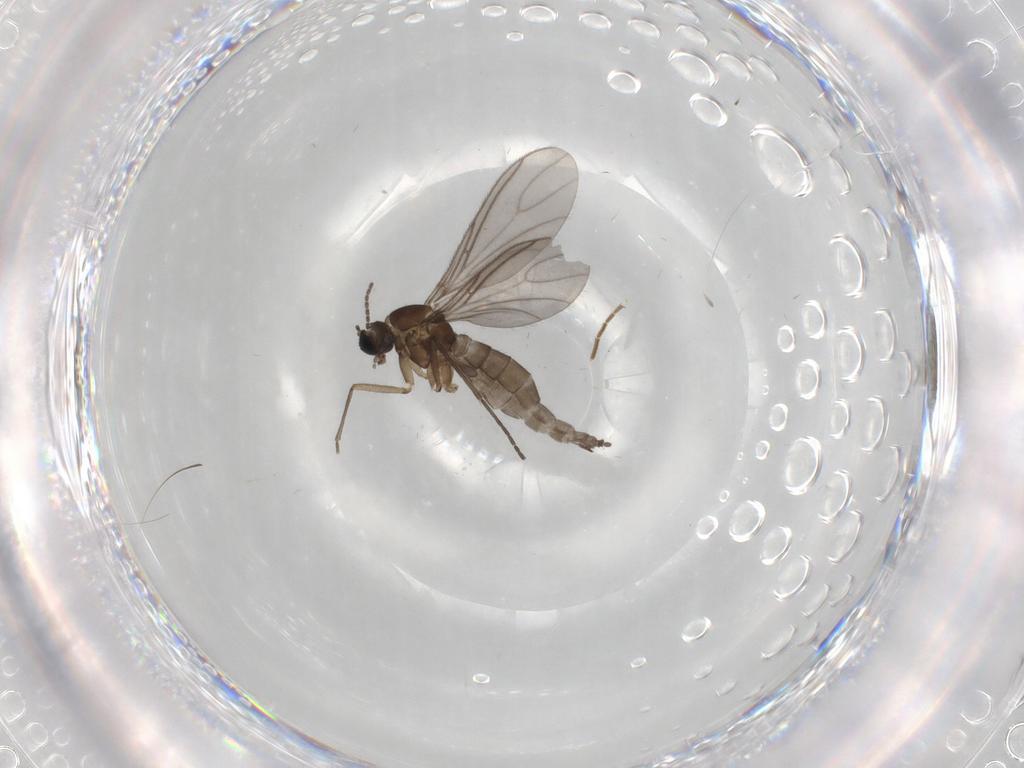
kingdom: Animalia
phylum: Arthropoda
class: Insecta
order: Diptera
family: Sciaridae
